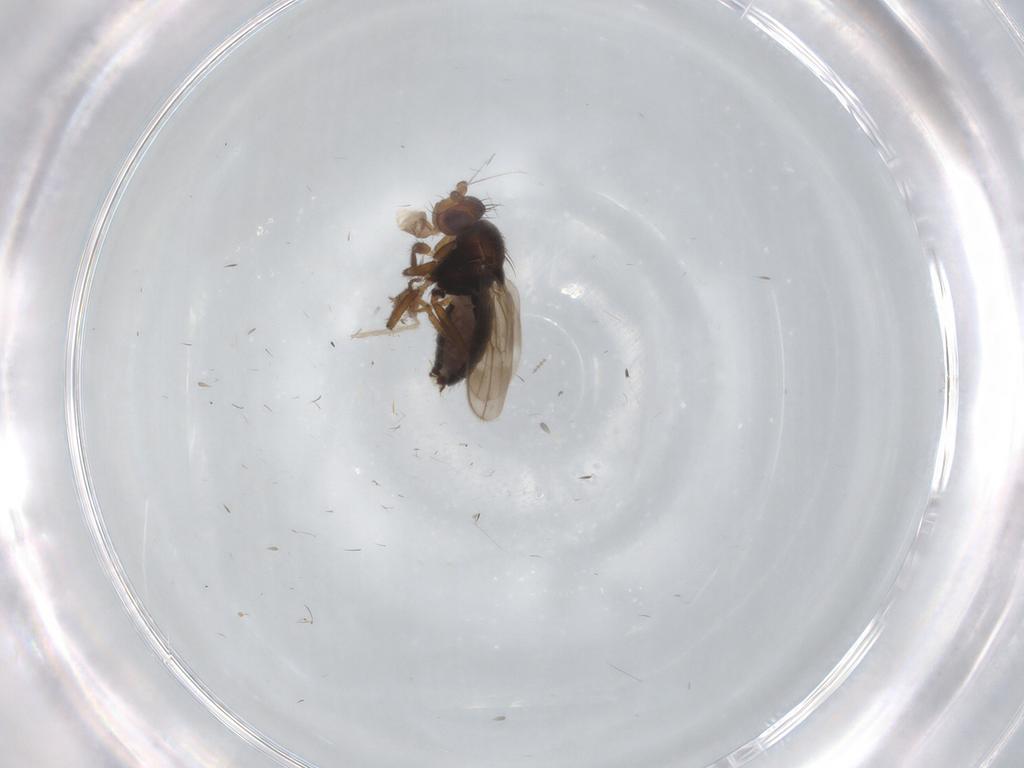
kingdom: Animalia
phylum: Arthropoda
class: Insecta
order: Diptera
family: Sphaeroceridae
